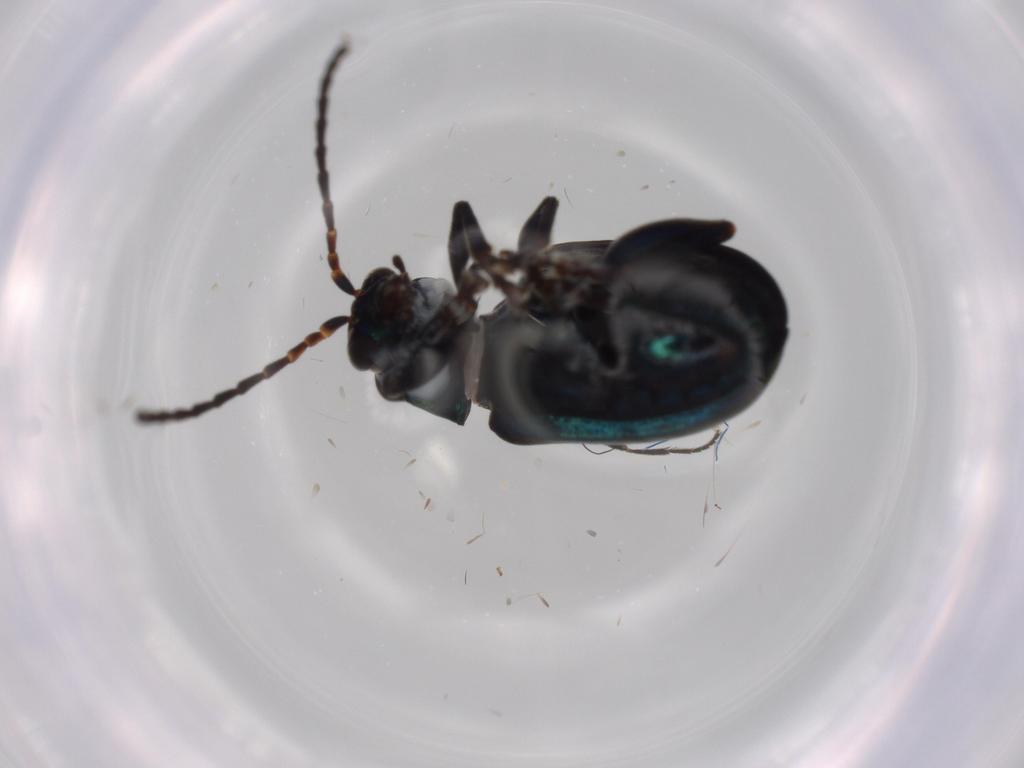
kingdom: Animalia
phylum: Arthropoda
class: Insecta
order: Coleoptera
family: Chrysomelidae
